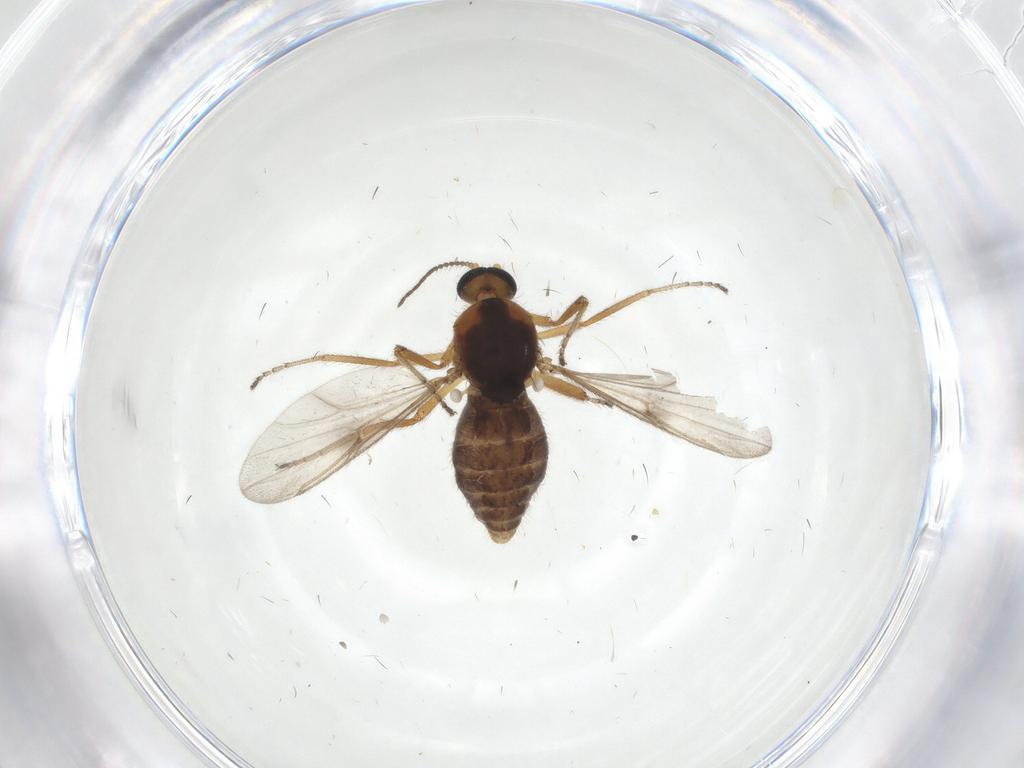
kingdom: Animalia
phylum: Arthropoda
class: Insecta
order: Diptera
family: Ceratopogonidae
